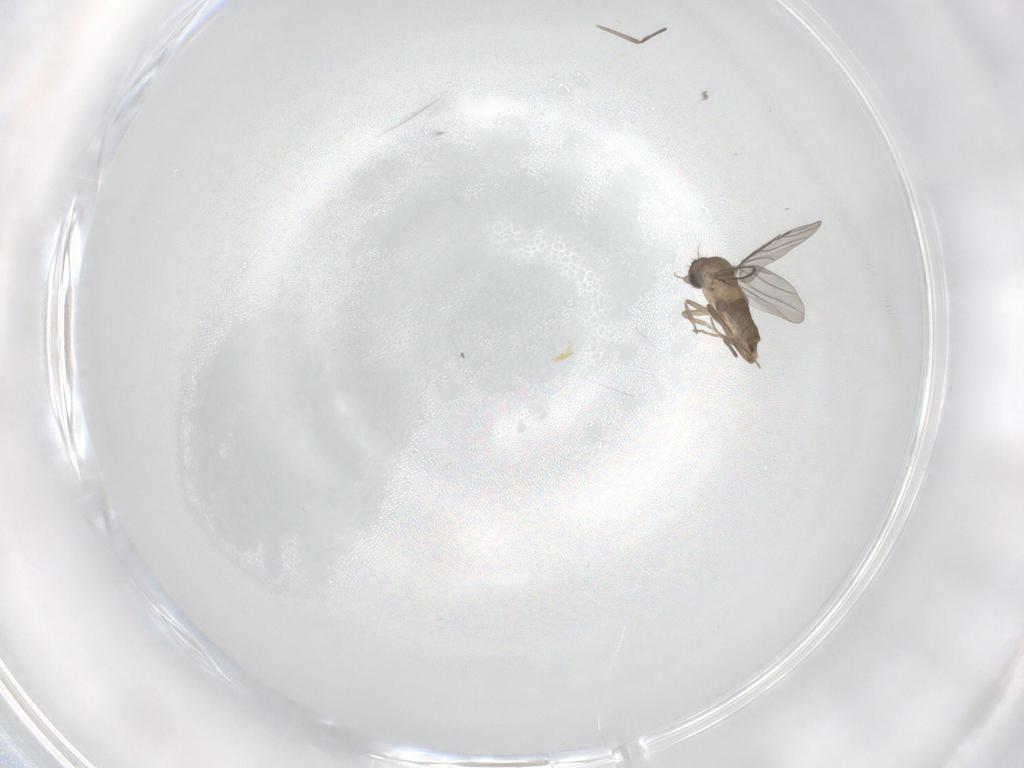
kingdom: Animalia
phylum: Arthropoda
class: Insecta
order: Diptera
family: Chironomidae
